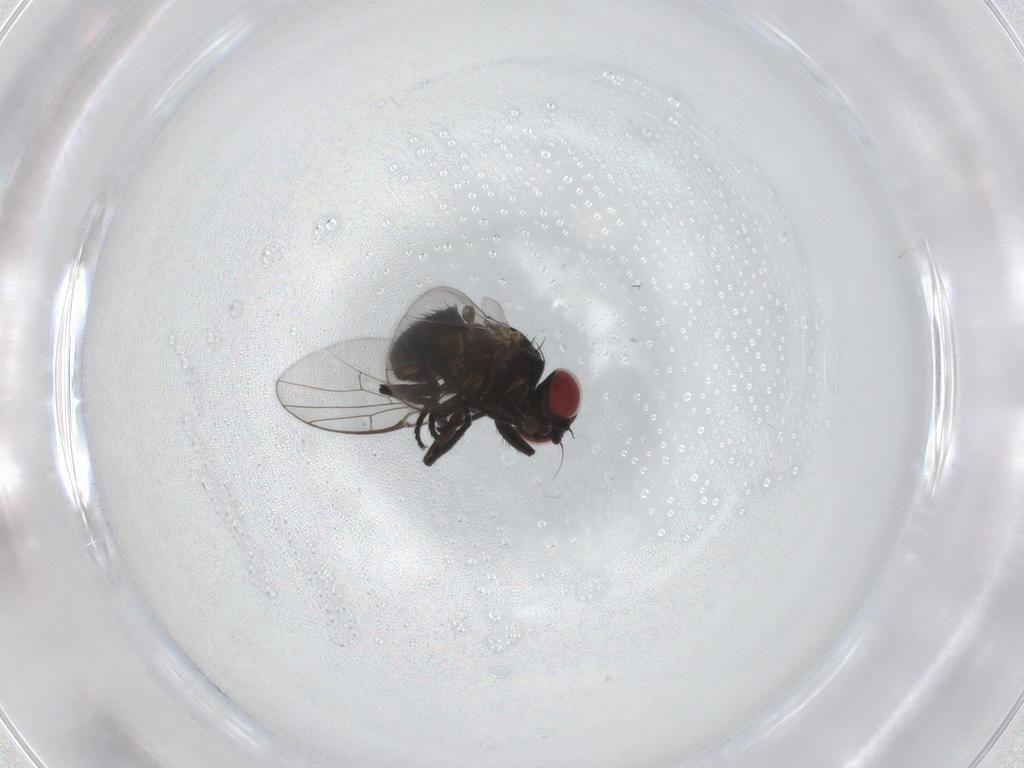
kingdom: Animalia
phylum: Arthropoda
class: Insecta
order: Diptera
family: Agromyzidae
